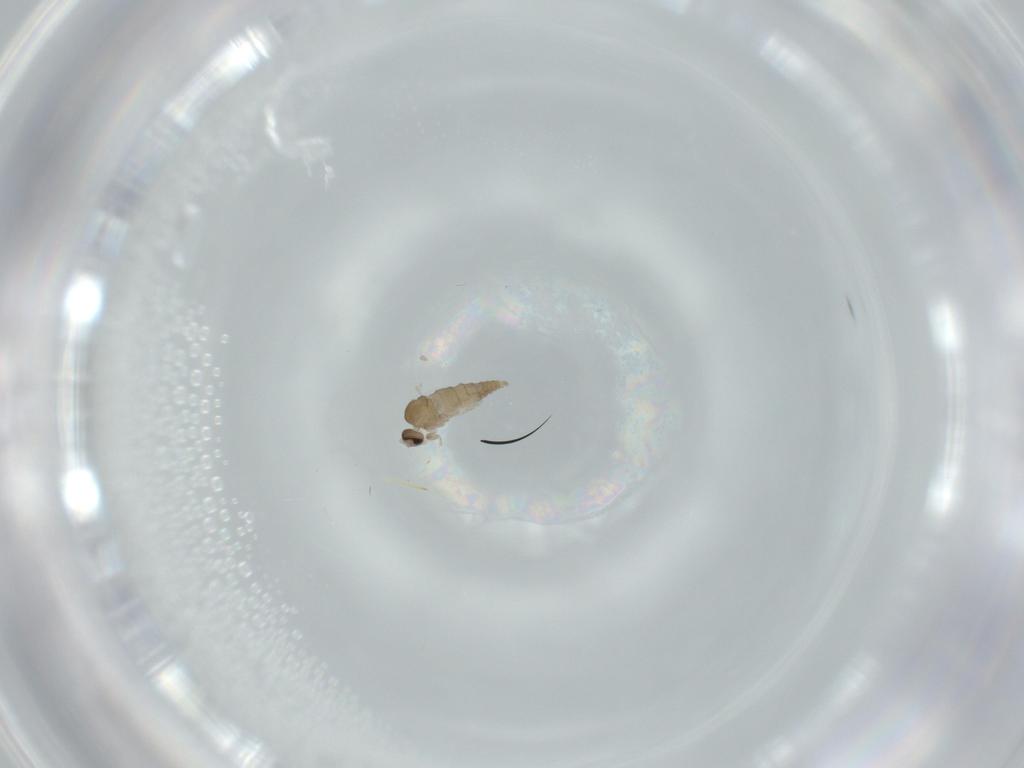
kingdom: Animalia
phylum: Arthropoda
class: Insecta
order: Diptera
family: Cecidomyiidae
